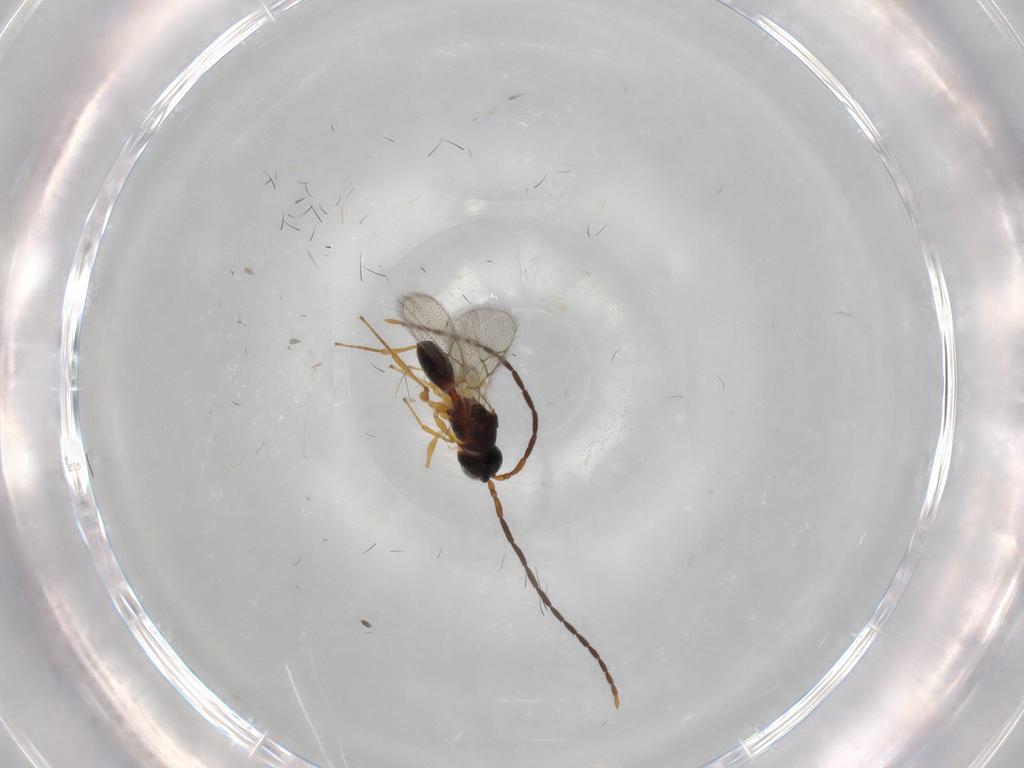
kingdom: Animalia
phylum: Arthropoda
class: Insecta
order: Hymenoptera
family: Figitidae
